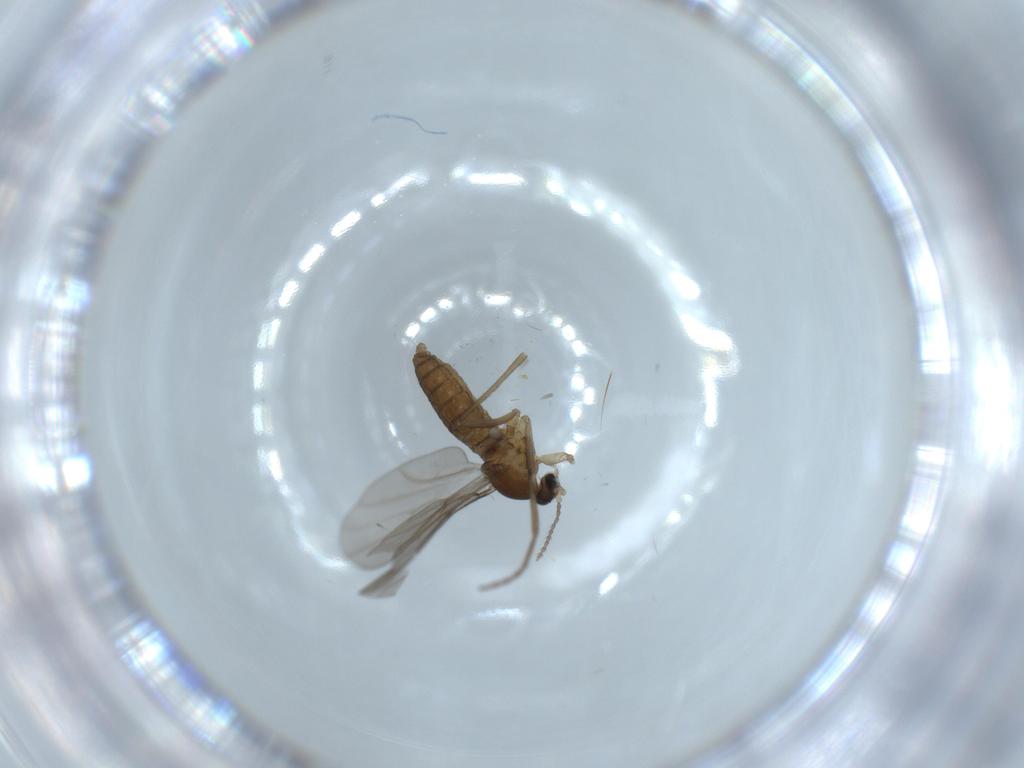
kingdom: Animalia
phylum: Arthropoda
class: Insecta
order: Diptera
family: Cecidomyiidae
